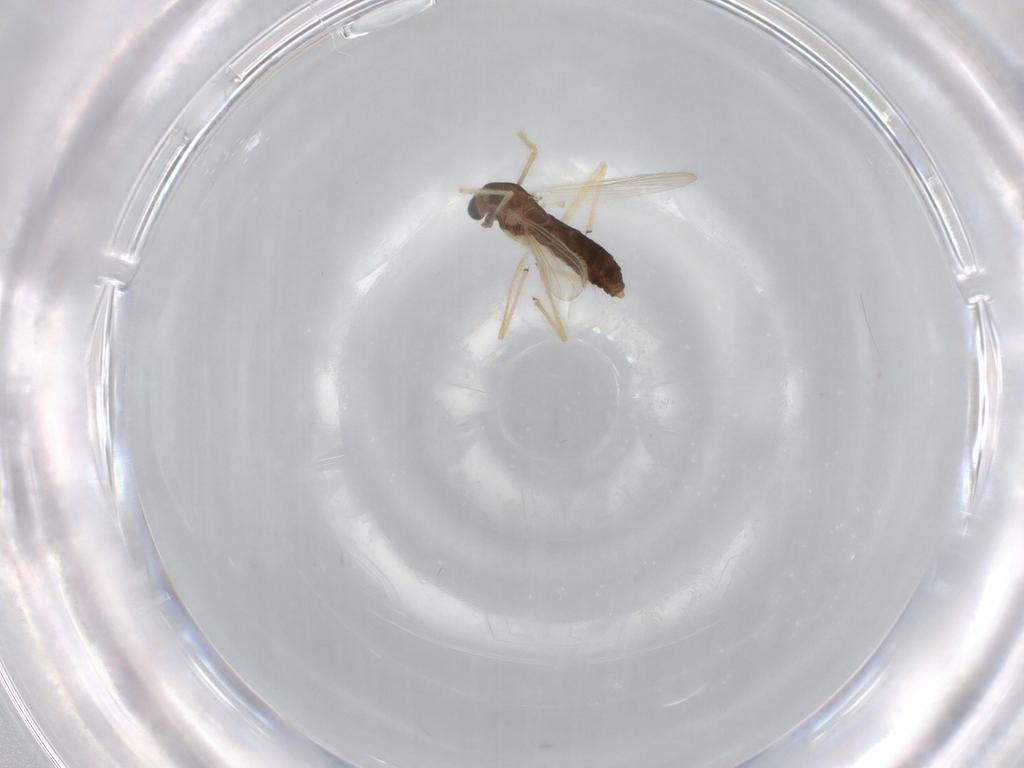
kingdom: Animalia
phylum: Arthropoda
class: Insecta
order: Diptera
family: Chironomidae
